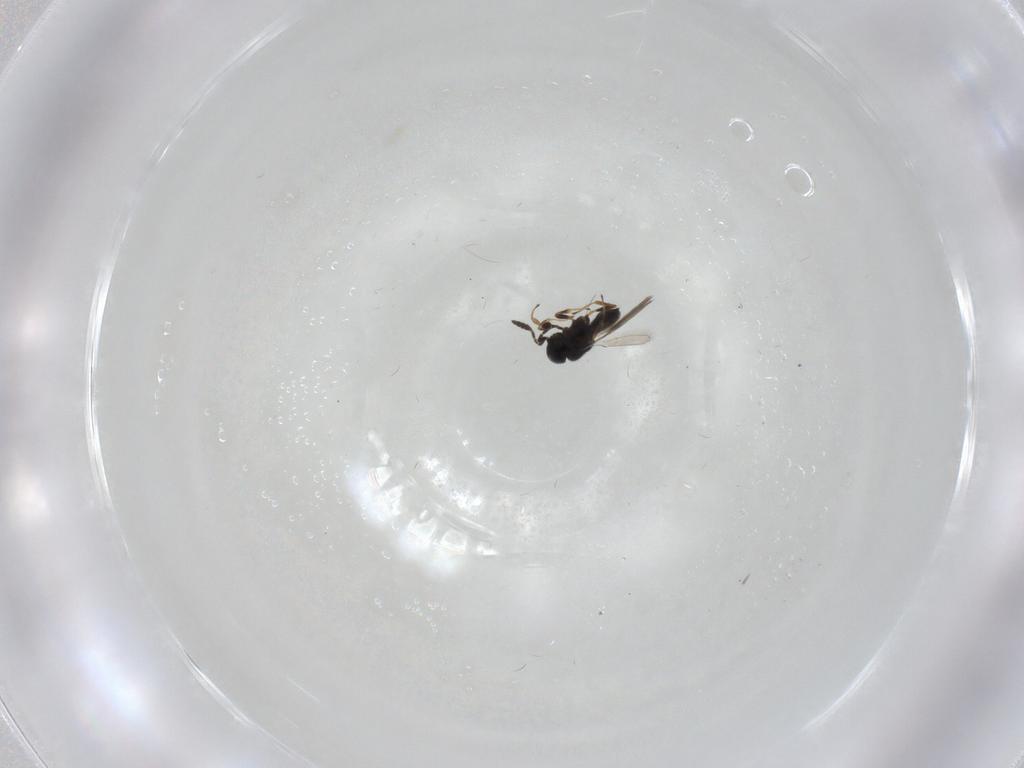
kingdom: Animalia
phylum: Arthropoda
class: Insecta
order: Hymenoptera
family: Scelionidae
